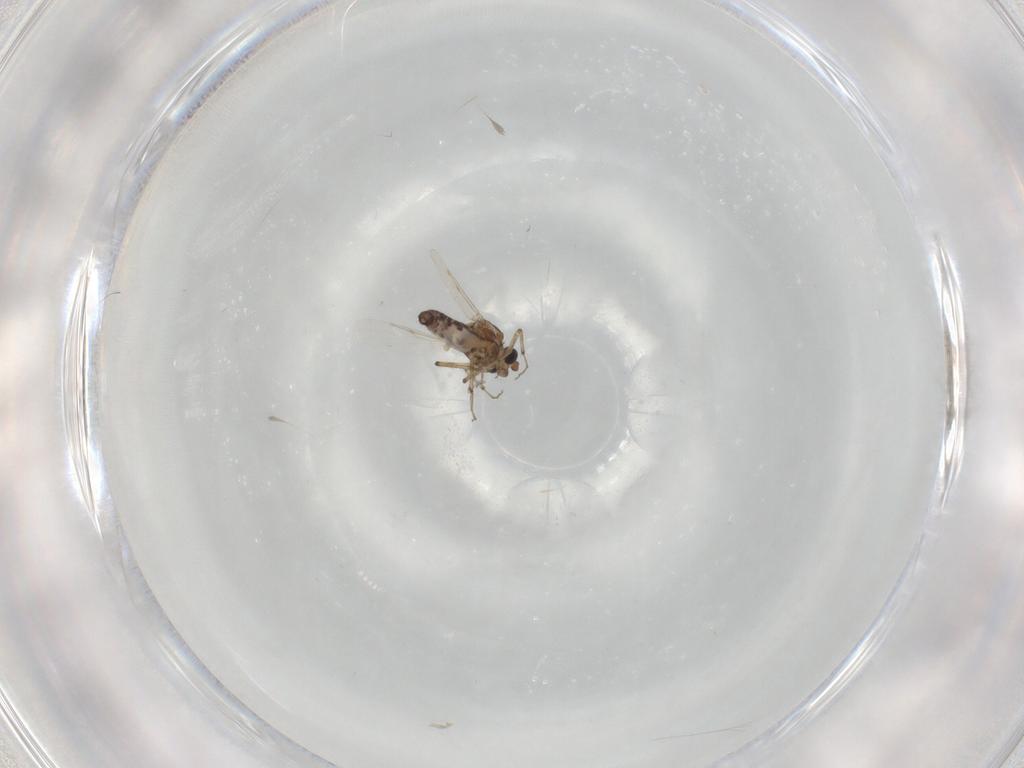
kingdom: Animalia
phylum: Arthropoda
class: Insecta
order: Diptera
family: Ceratopogonidae
